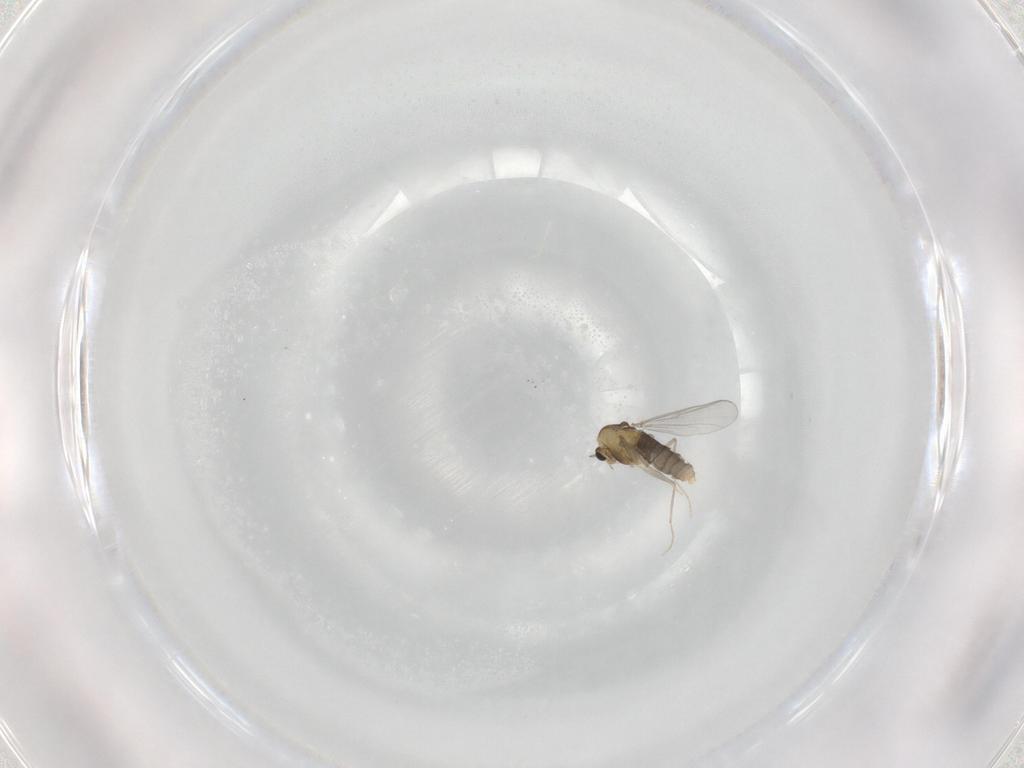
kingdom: Animalia
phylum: Arthropoda
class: Insecta
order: Diptera
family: Chironomidae
